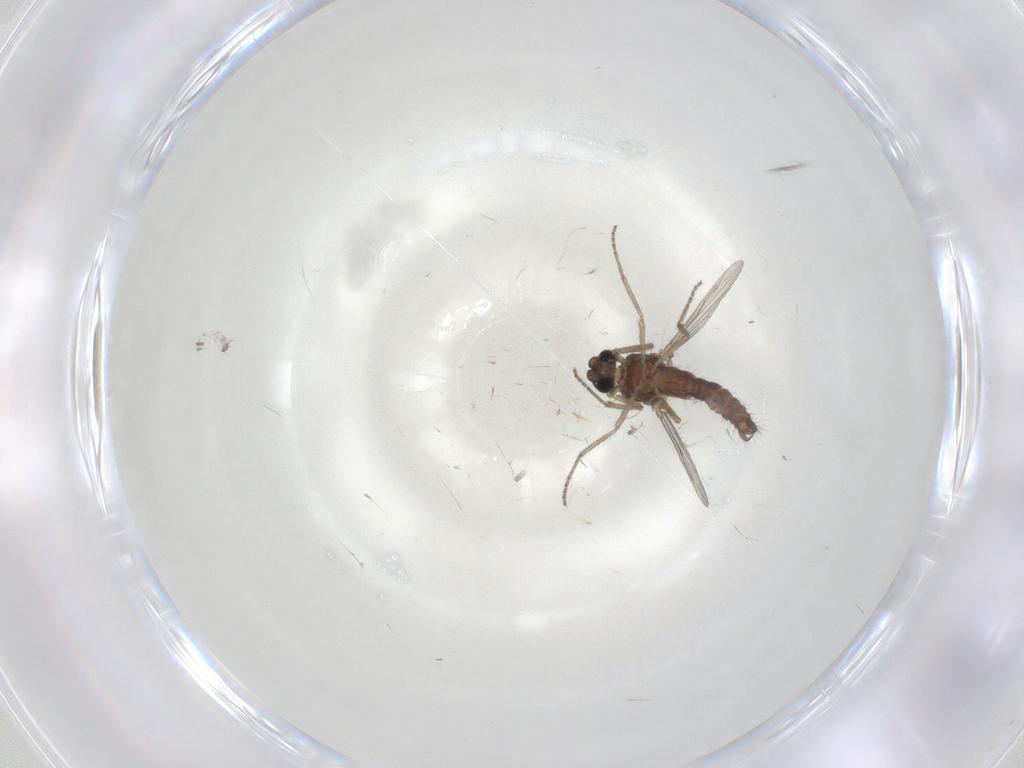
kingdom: Animalia
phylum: Arthropoda
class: Insecta
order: Diptera
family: Ceratopogonidae
